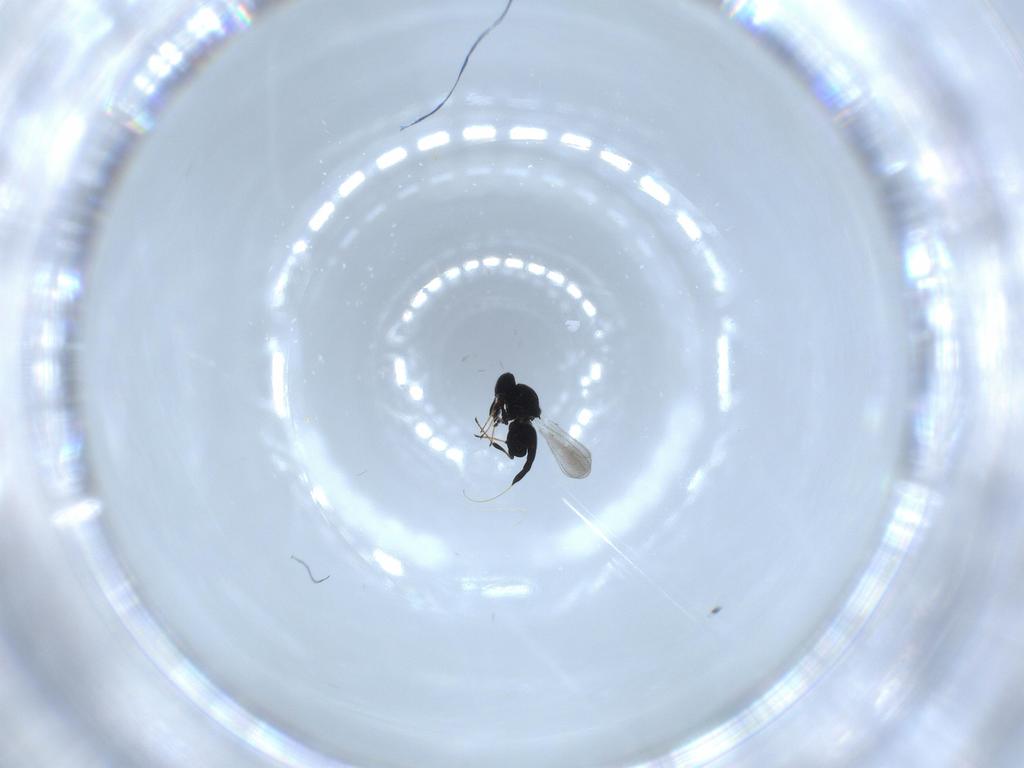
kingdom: Animalia
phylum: Arthropoda
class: Insecta
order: Hymenoptera
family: Platygastridae
